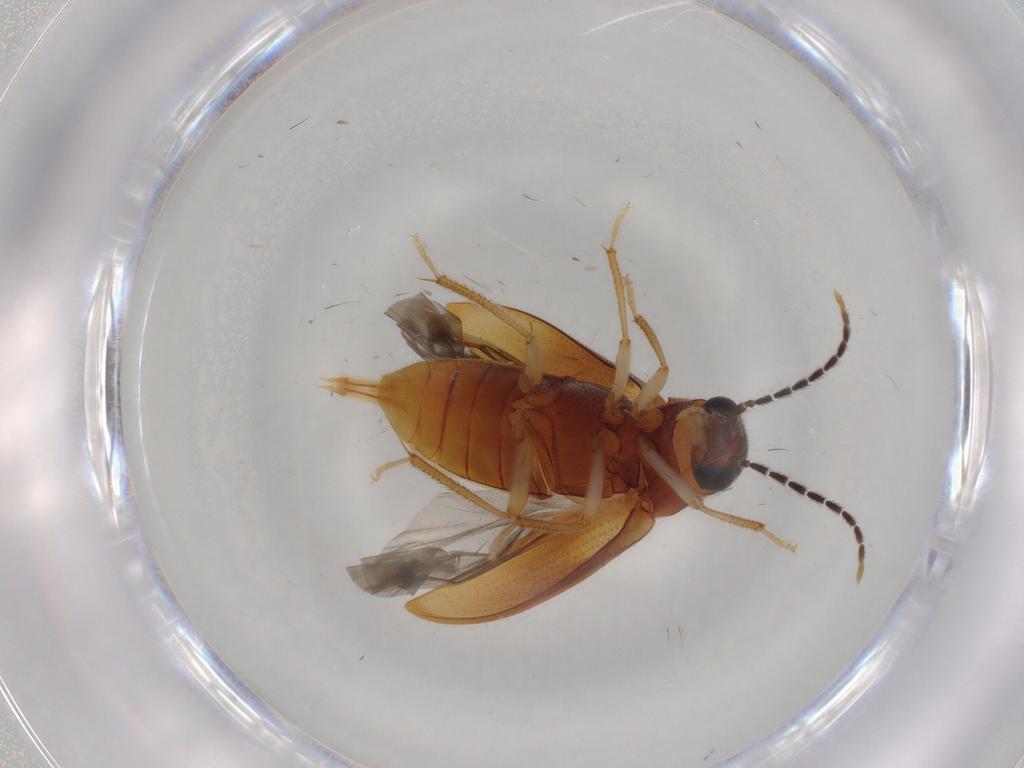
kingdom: Animalia
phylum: Arthropoda
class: Insecta
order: Coleoptera
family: Ptilodactylidae
